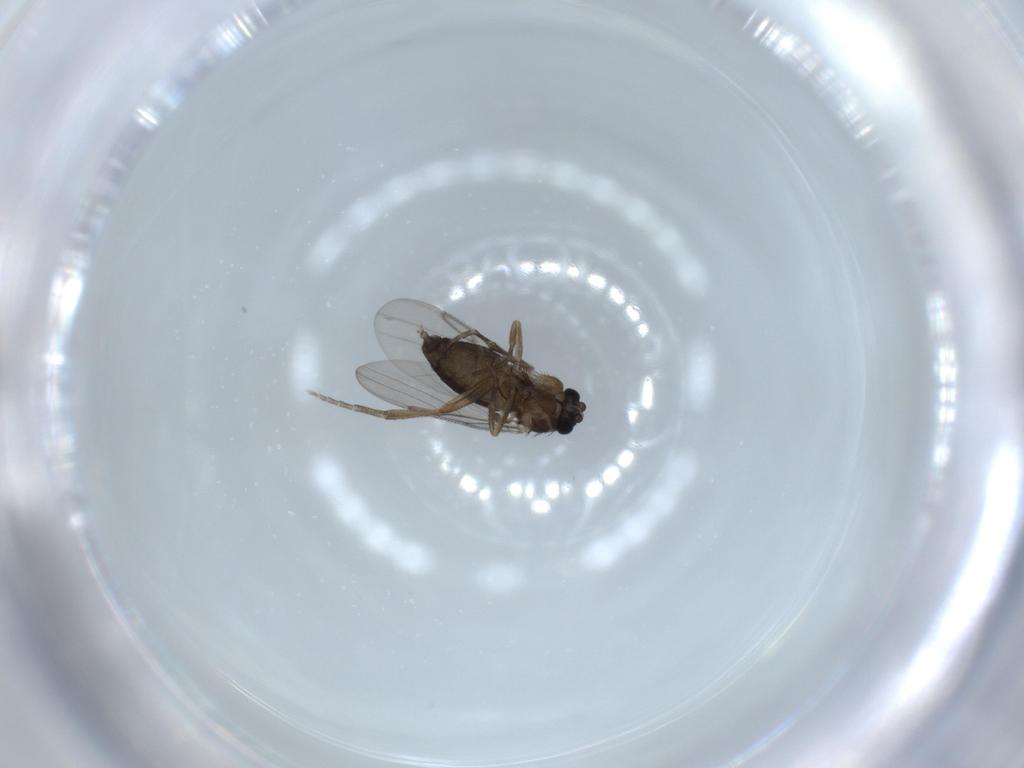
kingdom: Animalia
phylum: Arthropoda
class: Insecta
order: Diptera
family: Phoridae
